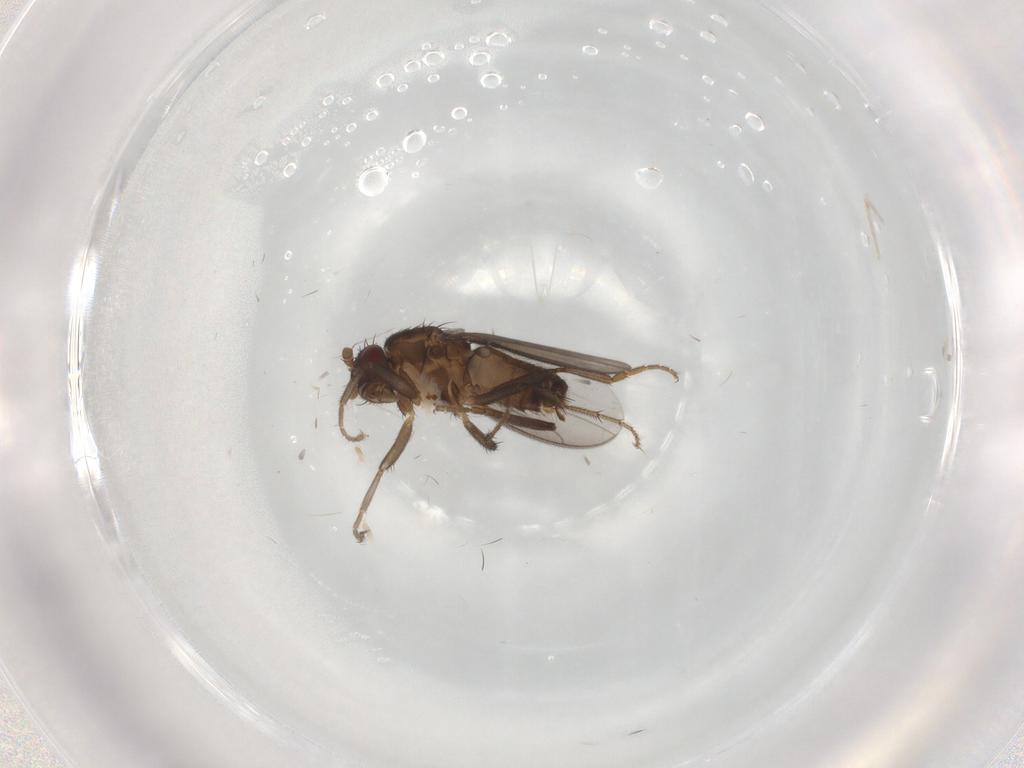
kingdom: Animalia
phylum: Arthropoda
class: Insecta
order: Diptera
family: Sphaeroceridae
